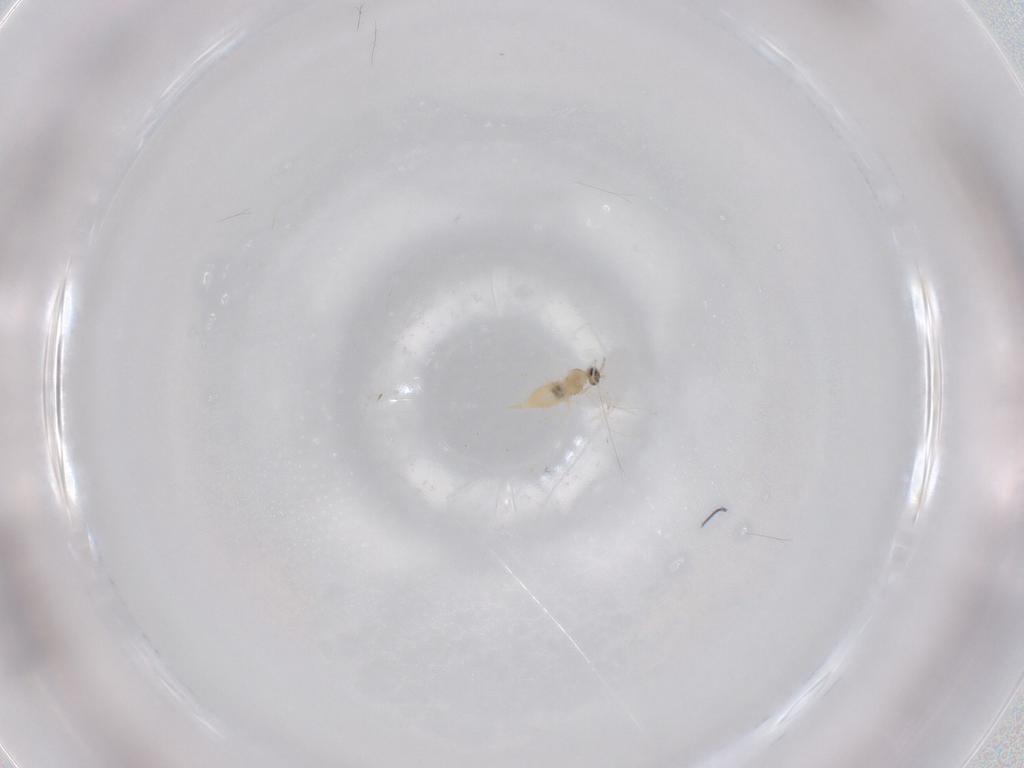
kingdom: Animalia
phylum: Arthropoda
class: Insecta
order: Diptera
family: Cecidomyiidae
